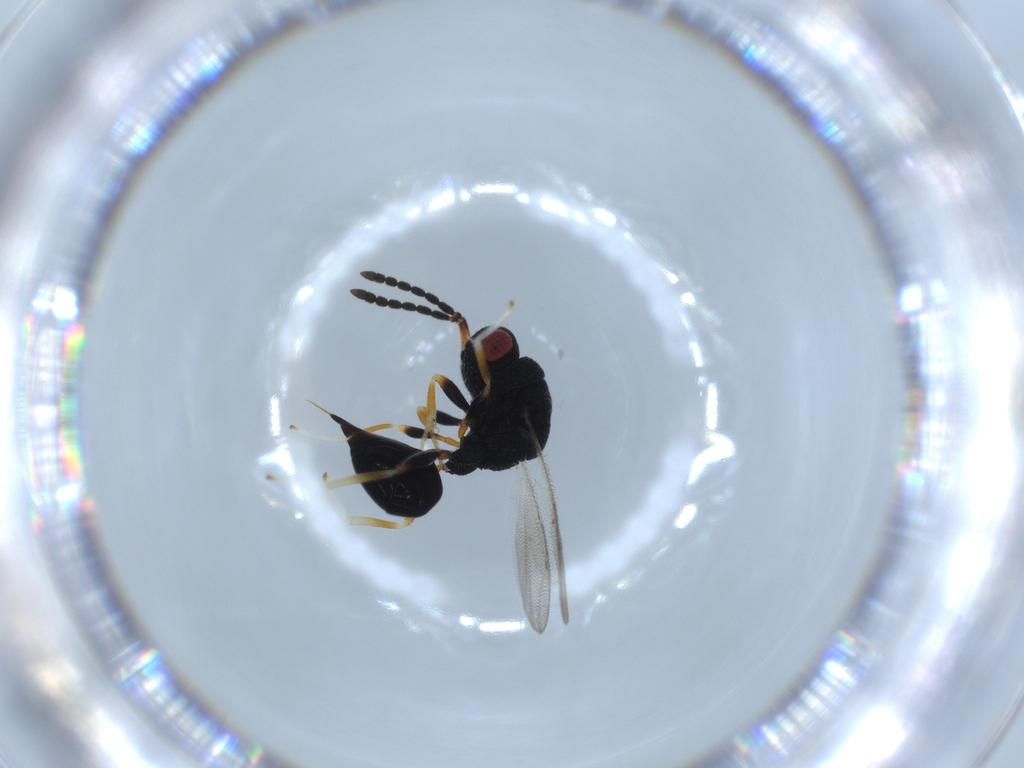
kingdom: Animalia
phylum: Arthropoda
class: Insecta
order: Hymenoptera
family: Eurytomidae
